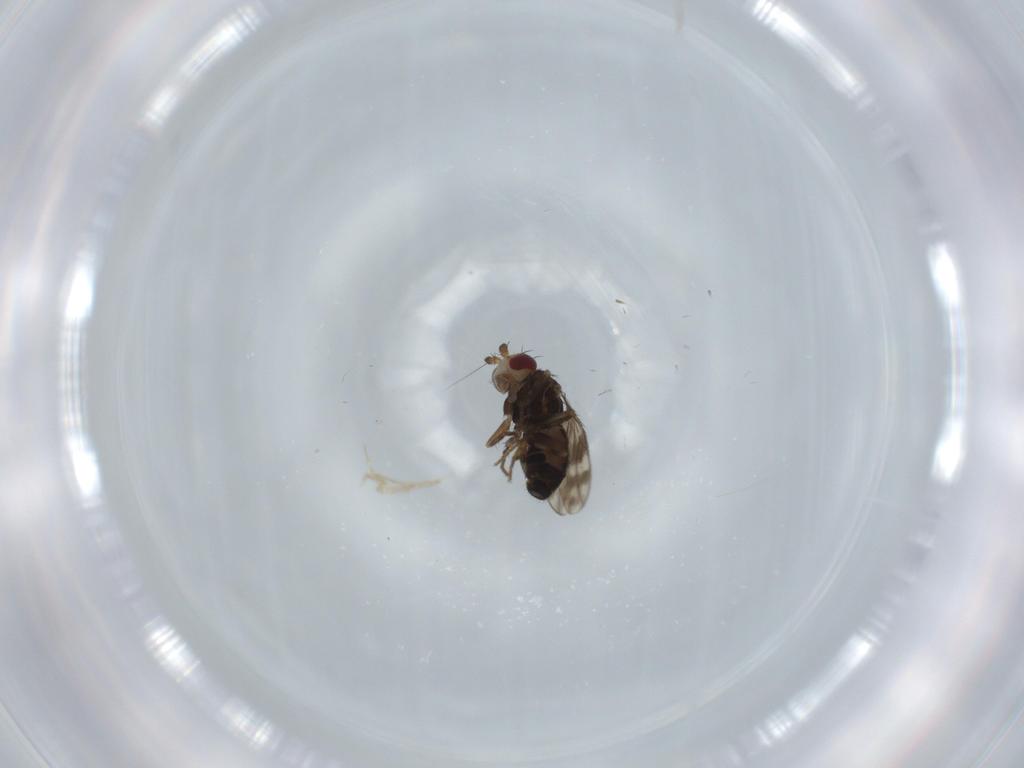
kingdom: Animalia
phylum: Arthropoda
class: Insecta
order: Diptera
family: Sphaeroceridae
